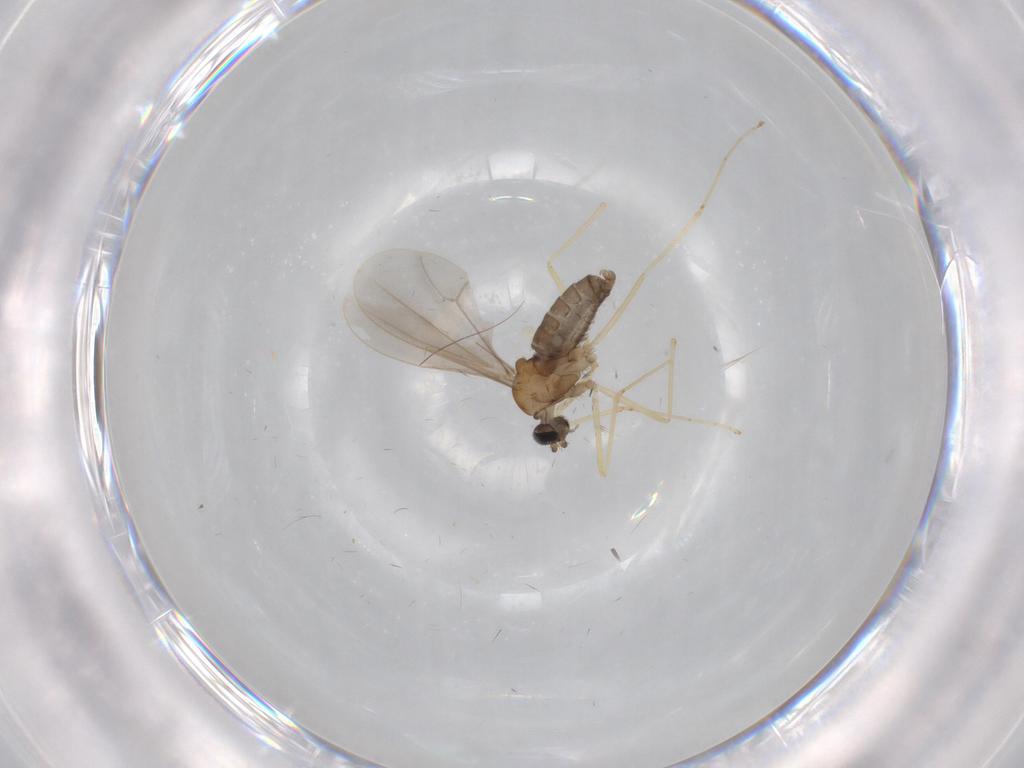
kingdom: Animalia
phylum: Arthropoda
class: Insecta
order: Diptera
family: Cecidomyiidae
